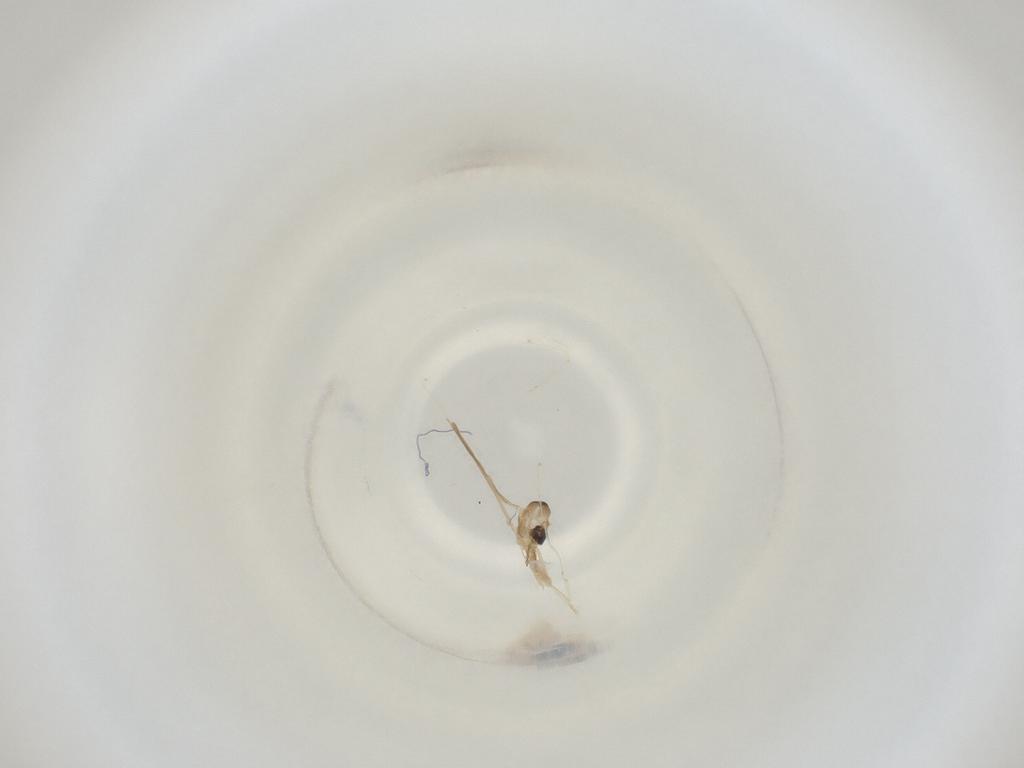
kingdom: Animalia
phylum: Arthropoda
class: Insecta
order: Diptera
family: Cecidomyiidae
